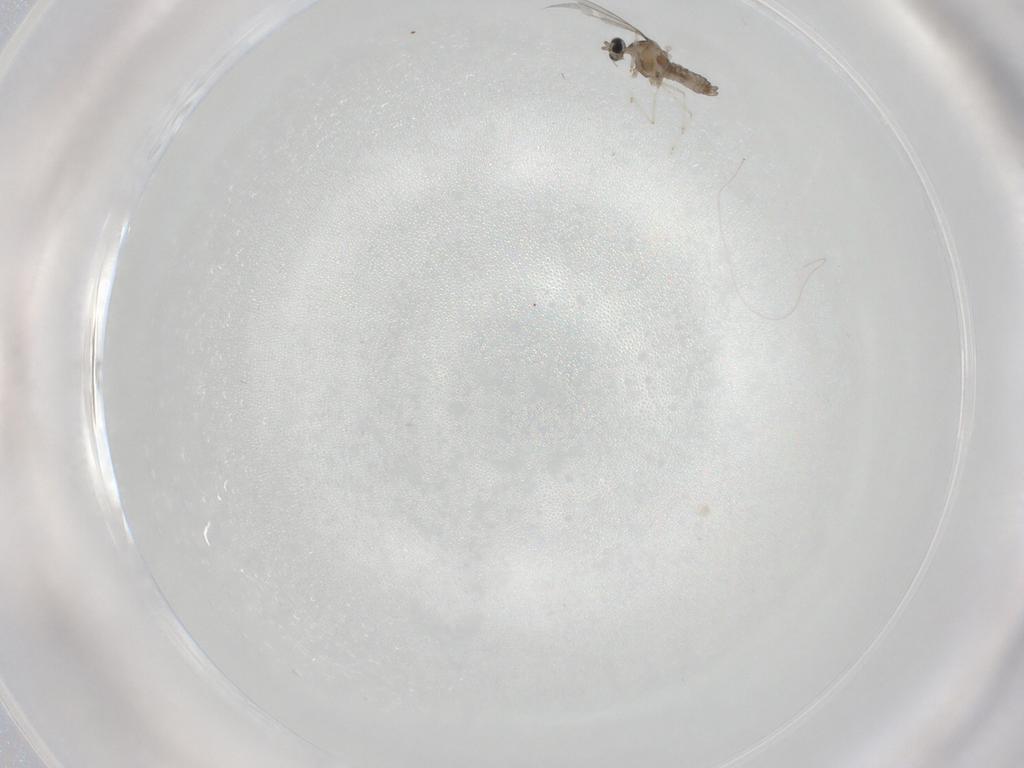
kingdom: Animalia
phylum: Arthropoda
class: Insecta
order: Diptera
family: Cecidomyiidae
